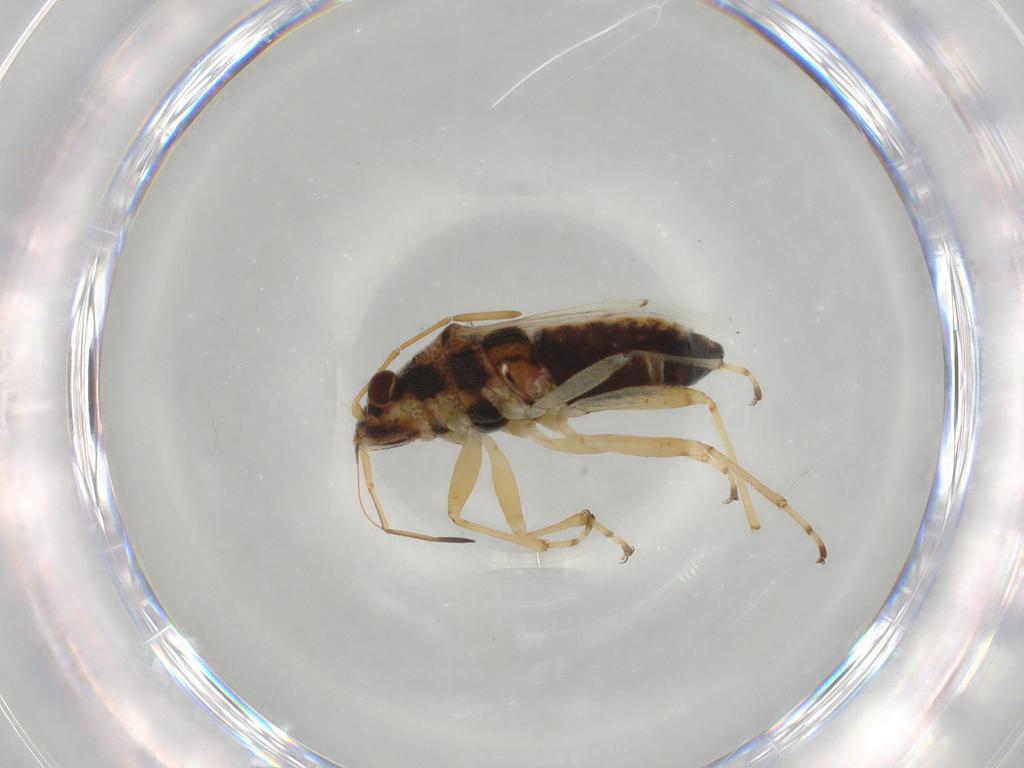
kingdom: Animalia
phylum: Arthropoda
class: Insecta
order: Hemiptera
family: Lygaeidae
